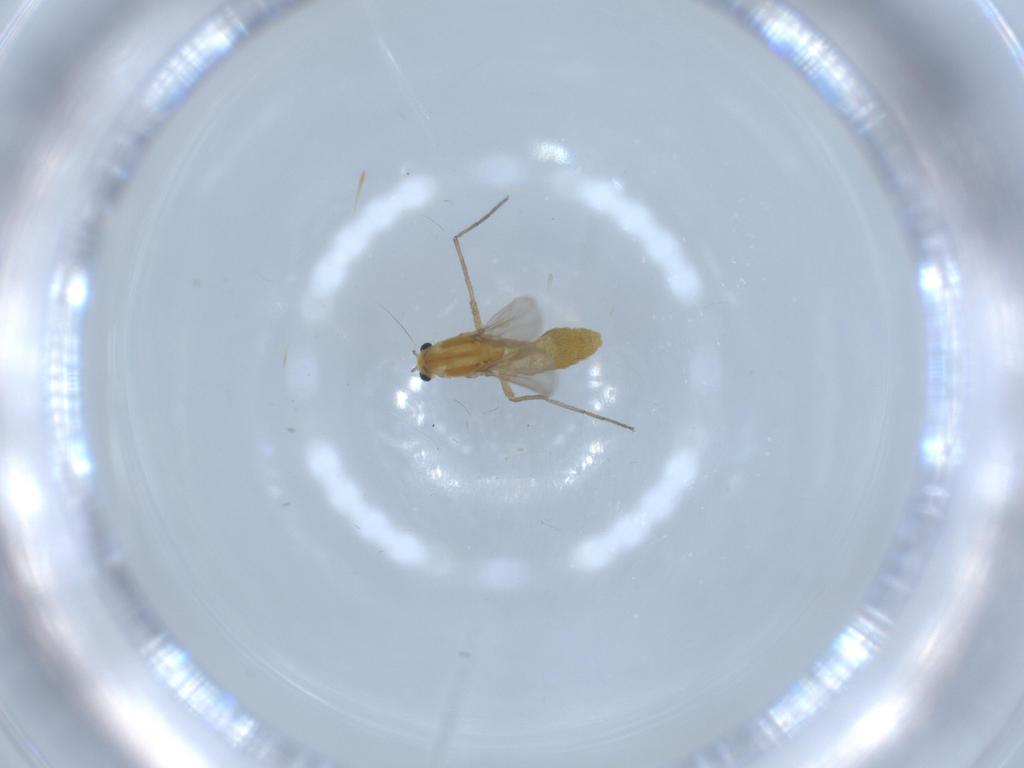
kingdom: Animalia
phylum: Arthropoda
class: Insecta
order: Diptera
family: Chironomidae
